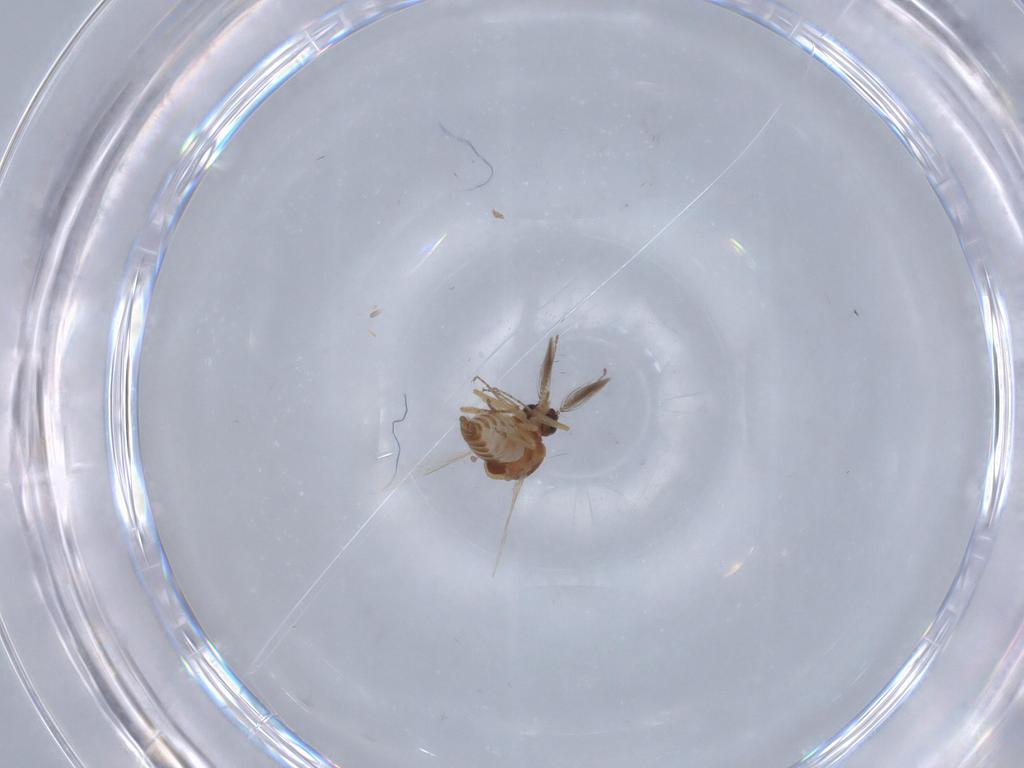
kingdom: Animalia
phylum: Arthropoda
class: Insecta
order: Diptera
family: Ceratopogonidae
